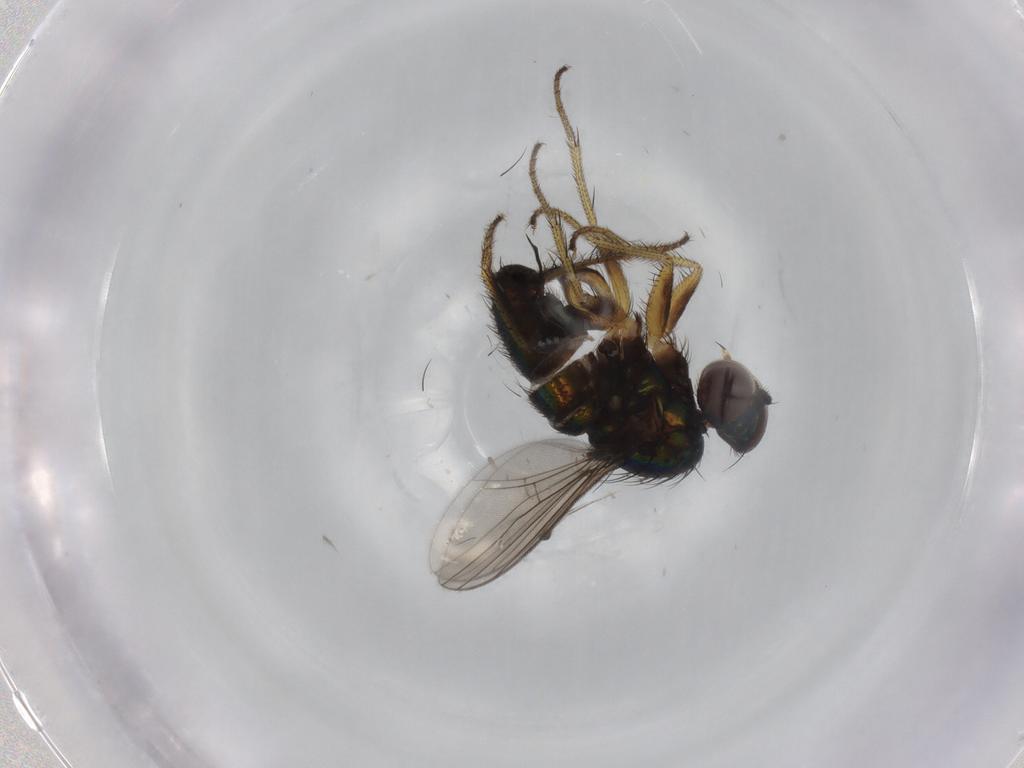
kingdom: Animalia
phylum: Arthropoda
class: Insecta
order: Diptera
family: Dolichopodidae
